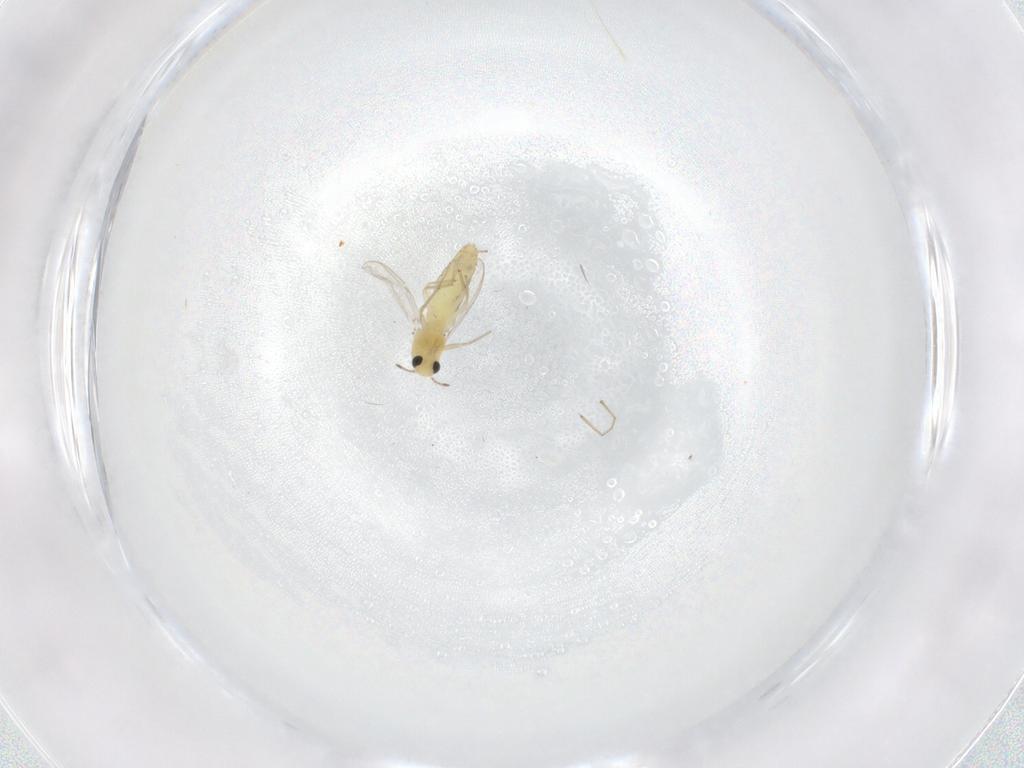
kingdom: Animalia
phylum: Arthropoda
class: Insecta
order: Diptera
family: Chironomidae
